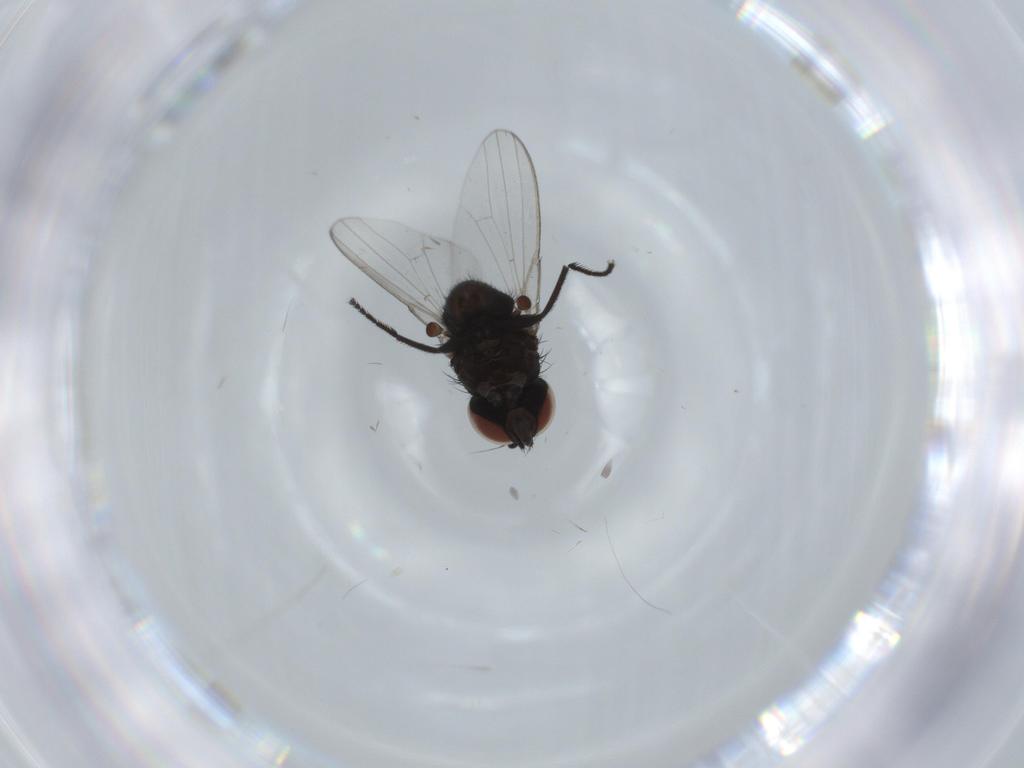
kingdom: Animalia
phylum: Arthropoda
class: Insecta
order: Diptera
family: Milichiidae
